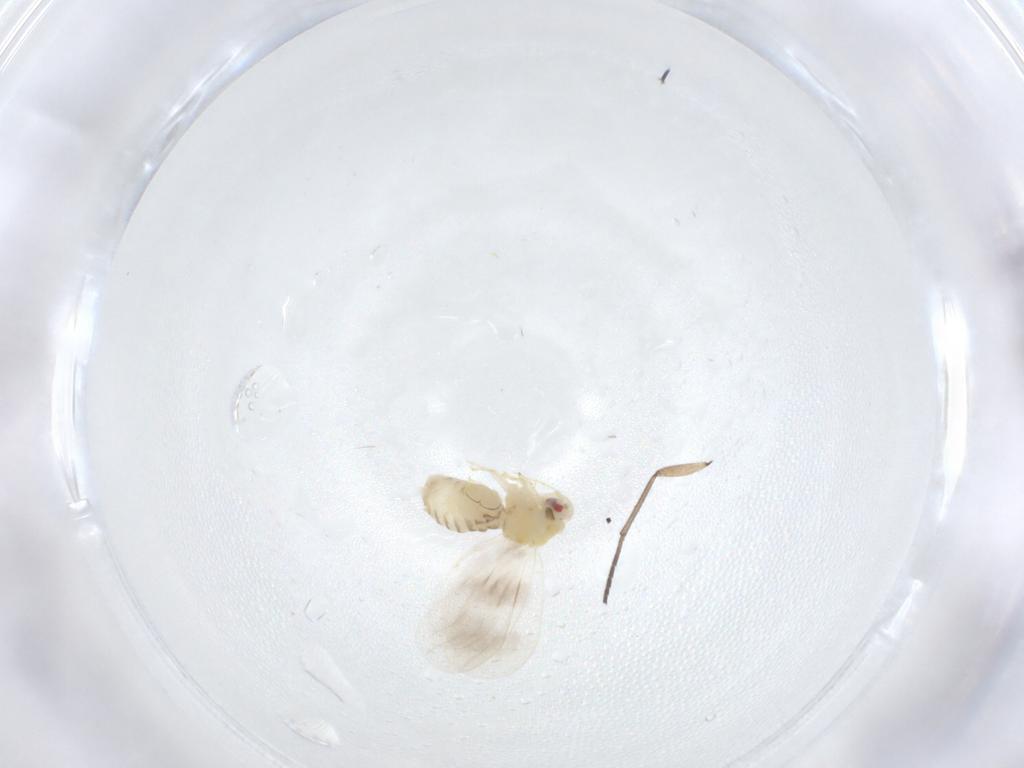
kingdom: Animalia
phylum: Arthropoda
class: Insecta
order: Hemiptera
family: Aleyrodidae
